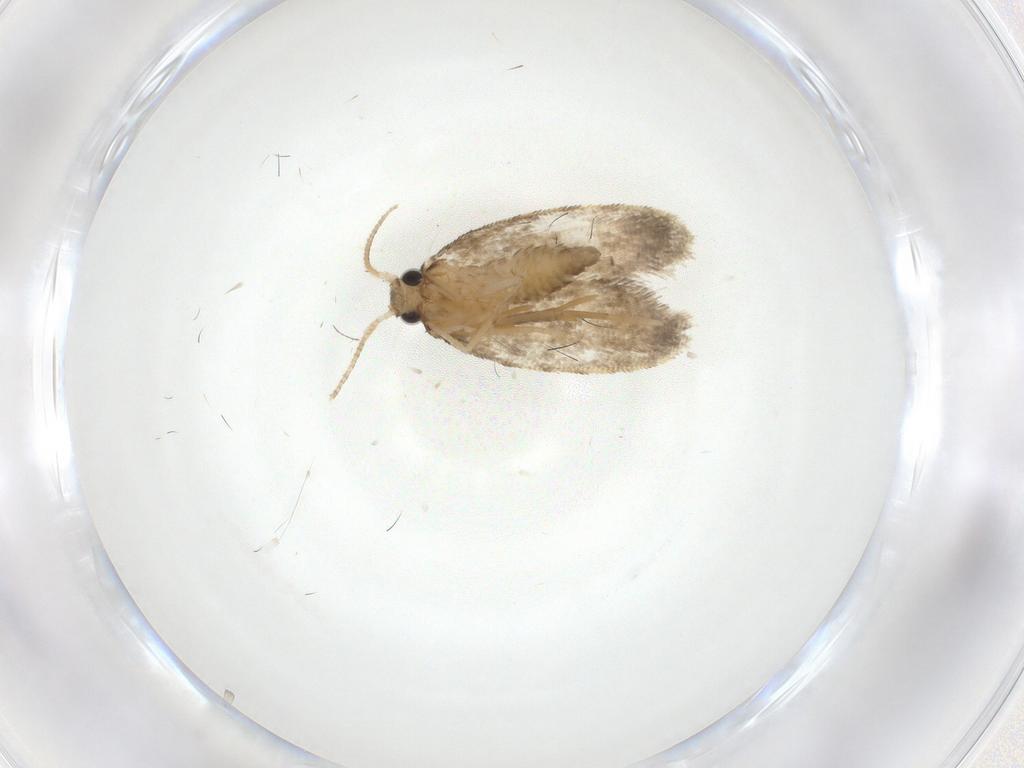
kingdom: Animalia
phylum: Arthropoda
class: Insecta
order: Lepidoptera
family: Psychidae
